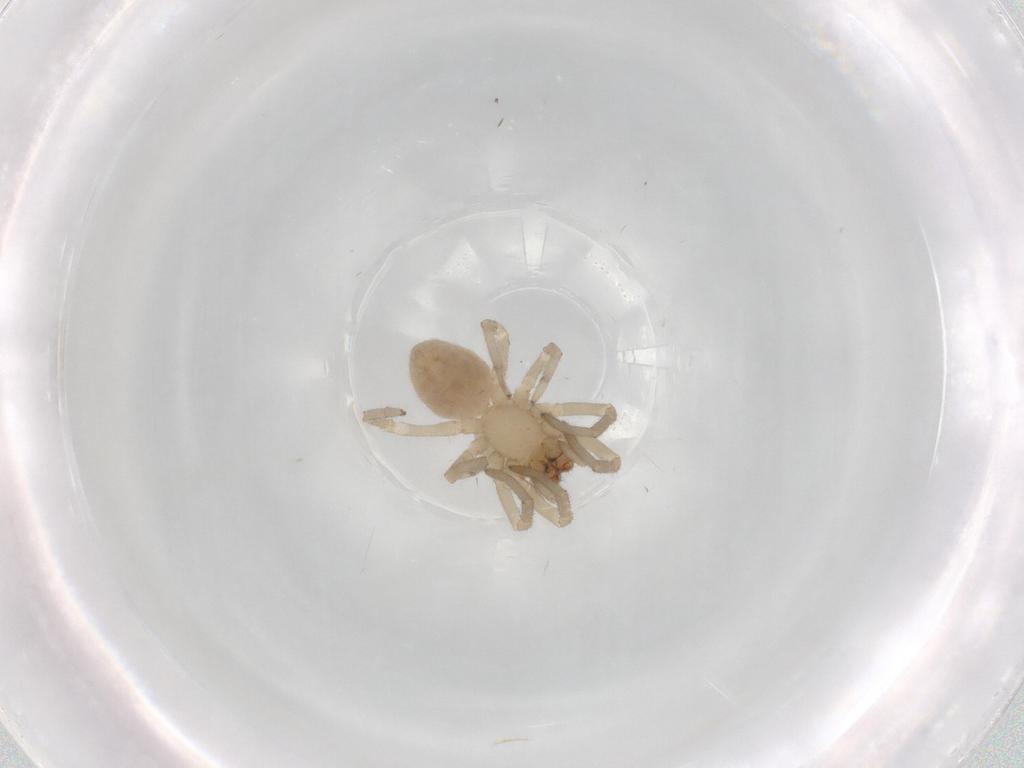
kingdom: Animalia
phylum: Arthropoda
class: Arachnida
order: Araneae
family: Trachelidae
